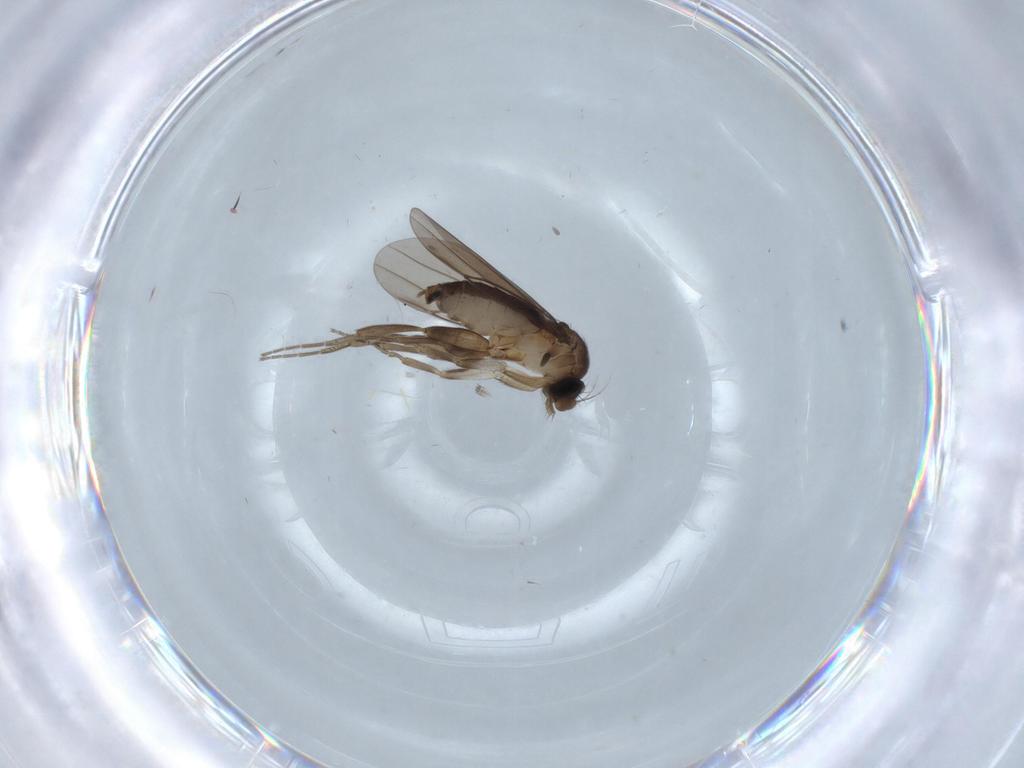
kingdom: Animalia
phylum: Arthropoda
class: Insecta
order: Diptera
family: Chironomidae
